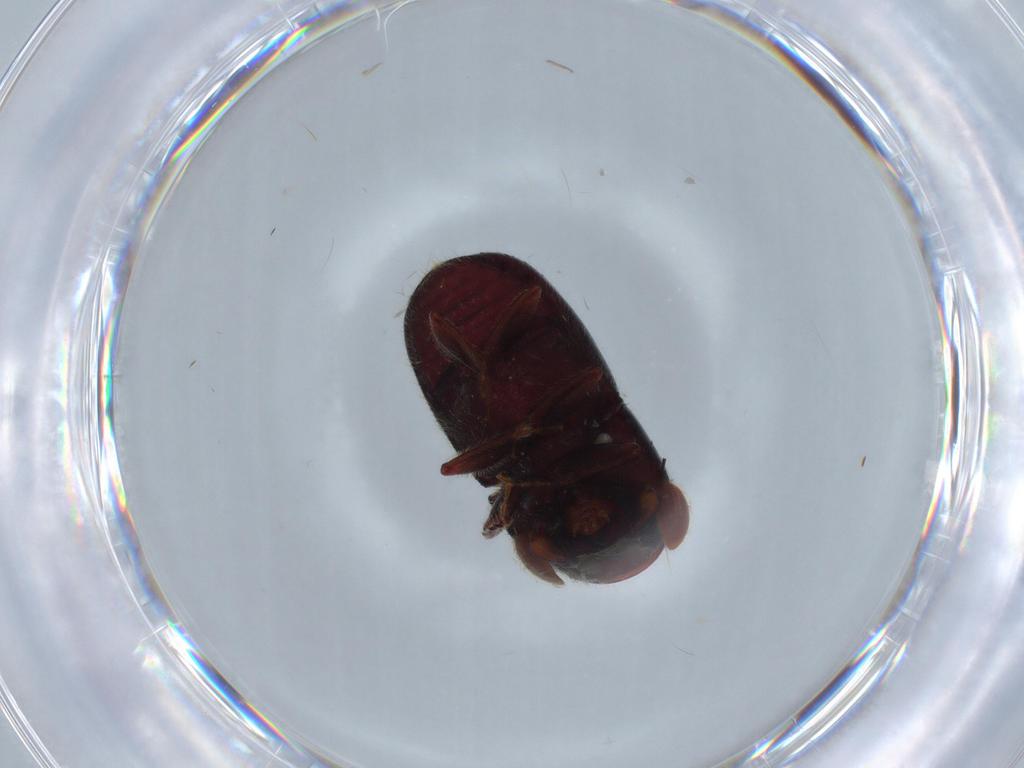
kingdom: Animalia
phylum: Arthropoda
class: Insecta
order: Coleoptera
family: Curculionidae
